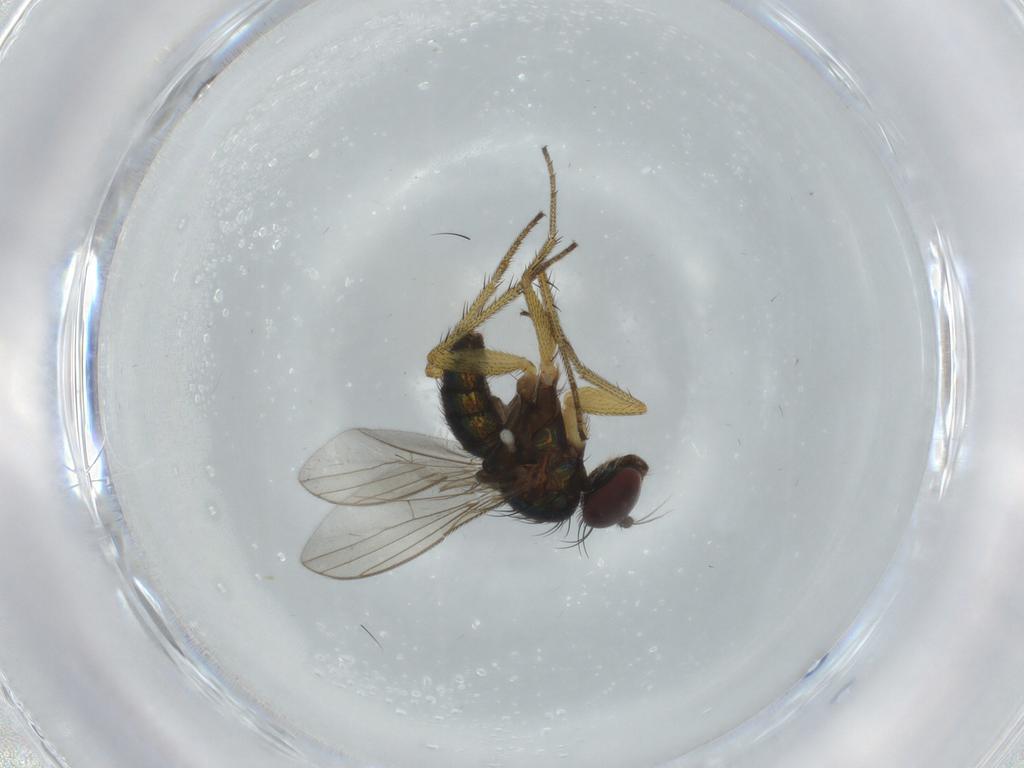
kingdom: Animalia
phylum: Arthropoda
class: Insecta
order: Diptera
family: Dolichopodidae
